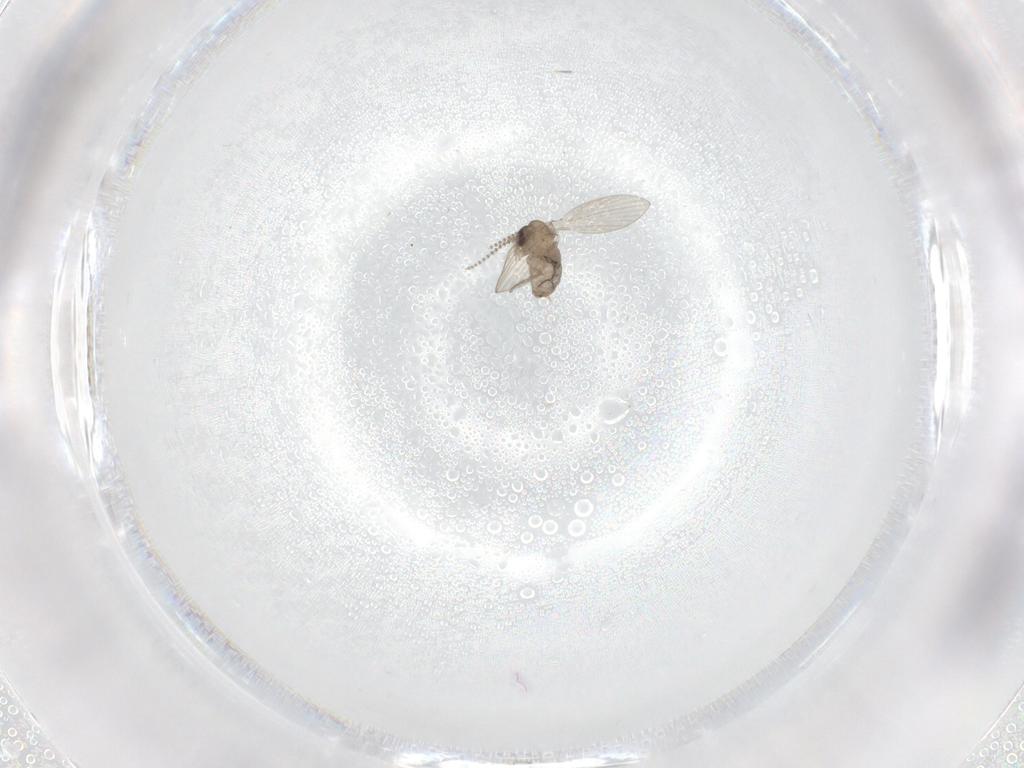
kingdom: Animalia
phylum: Arthropoda
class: Insecta
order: Diptera
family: Chironomidae
